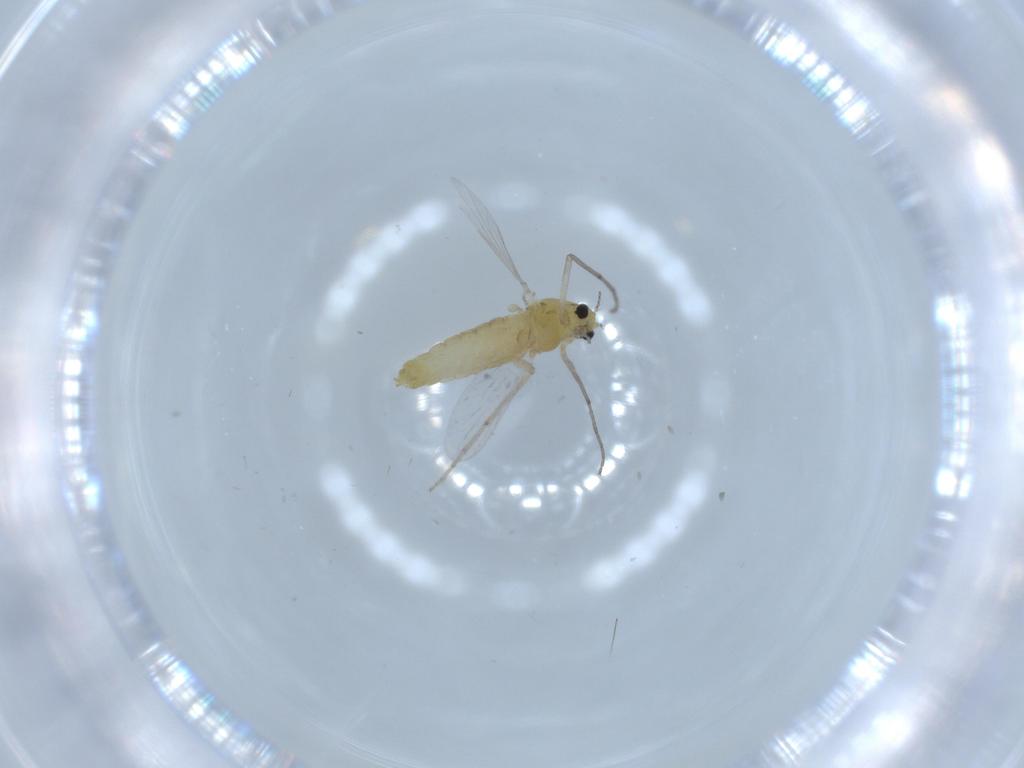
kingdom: Animalia
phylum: Arthropoda
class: Insecta
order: Diptera
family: Chironomidae
